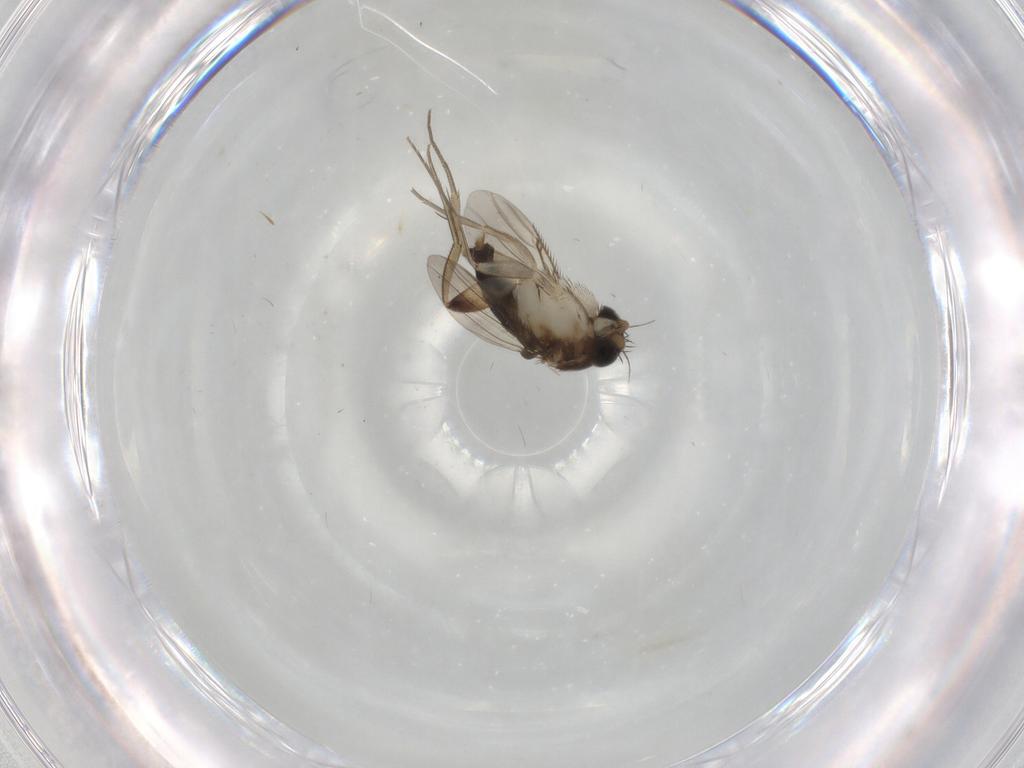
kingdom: Animalia
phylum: Arthropoda
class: Insecta
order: Diptera
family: Phoridae
